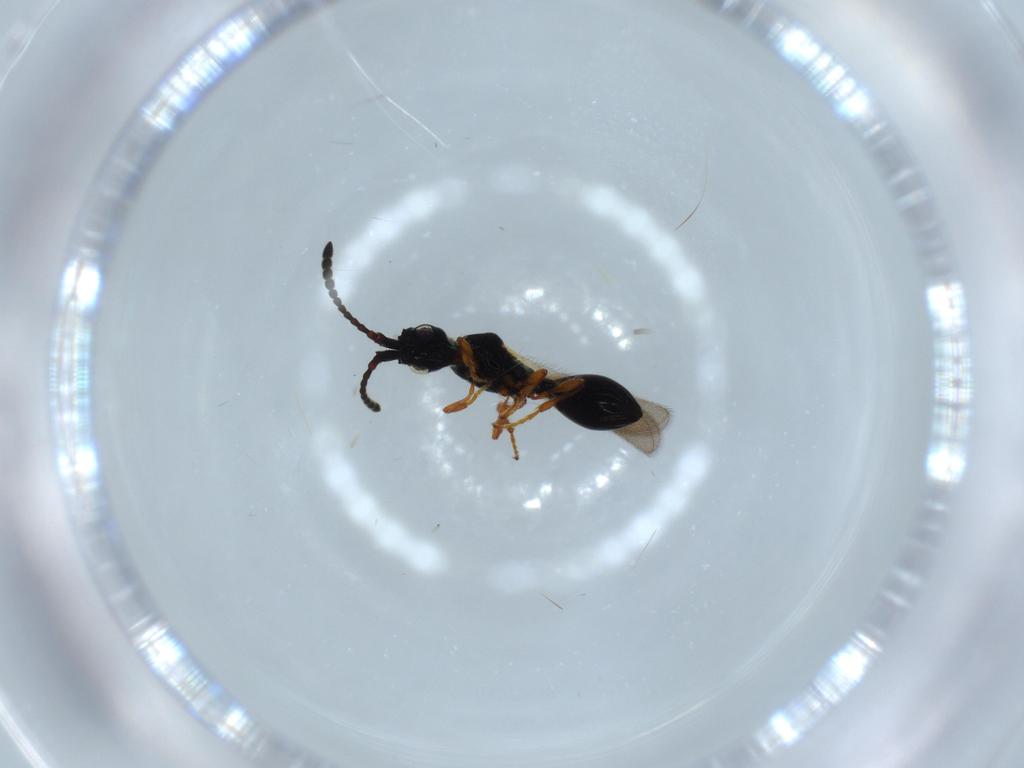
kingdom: Animalia
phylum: Arthropoda
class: Insecta
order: Hymenoptera
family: Diapriidae
